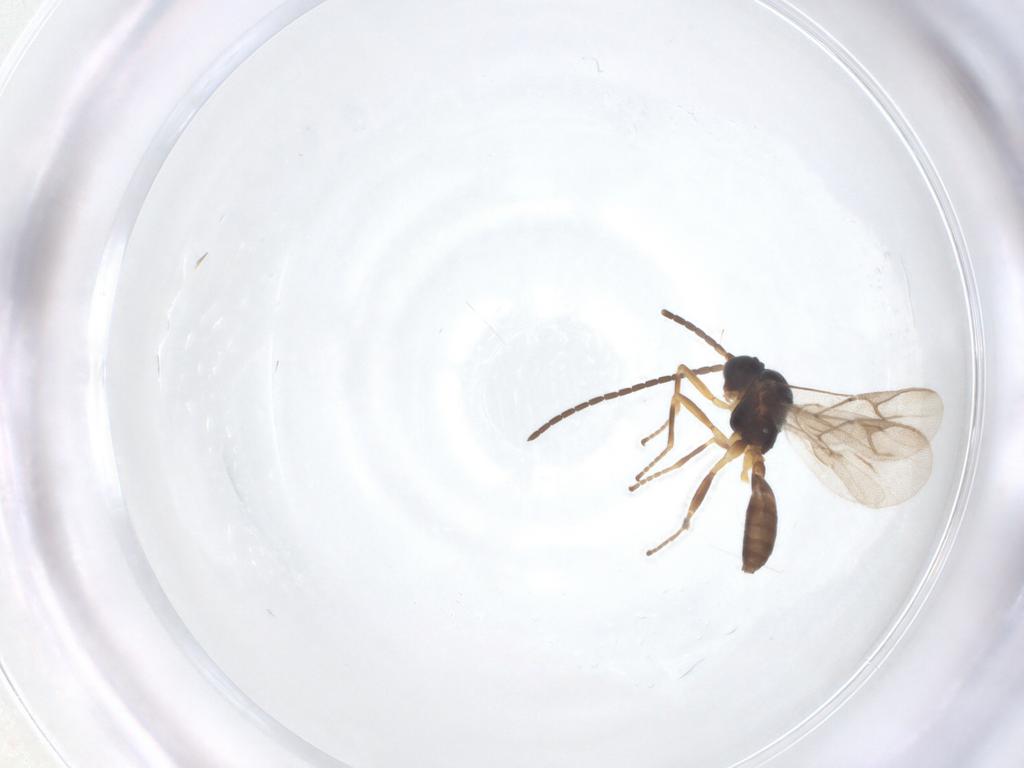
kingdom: Animalia
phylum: Arthropoda
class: Insecta
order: Hymenoptera
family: Braconidae
